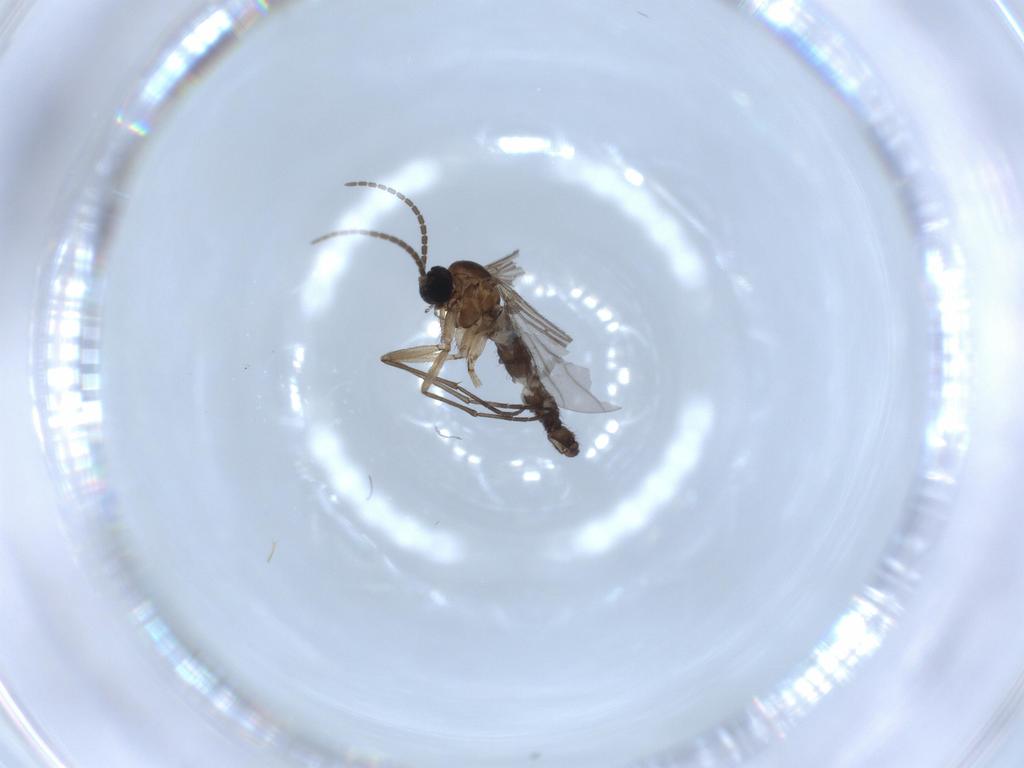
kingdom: Animalia
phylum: Arthropoda
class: Insecta
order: Diptera
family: Sciaridae
